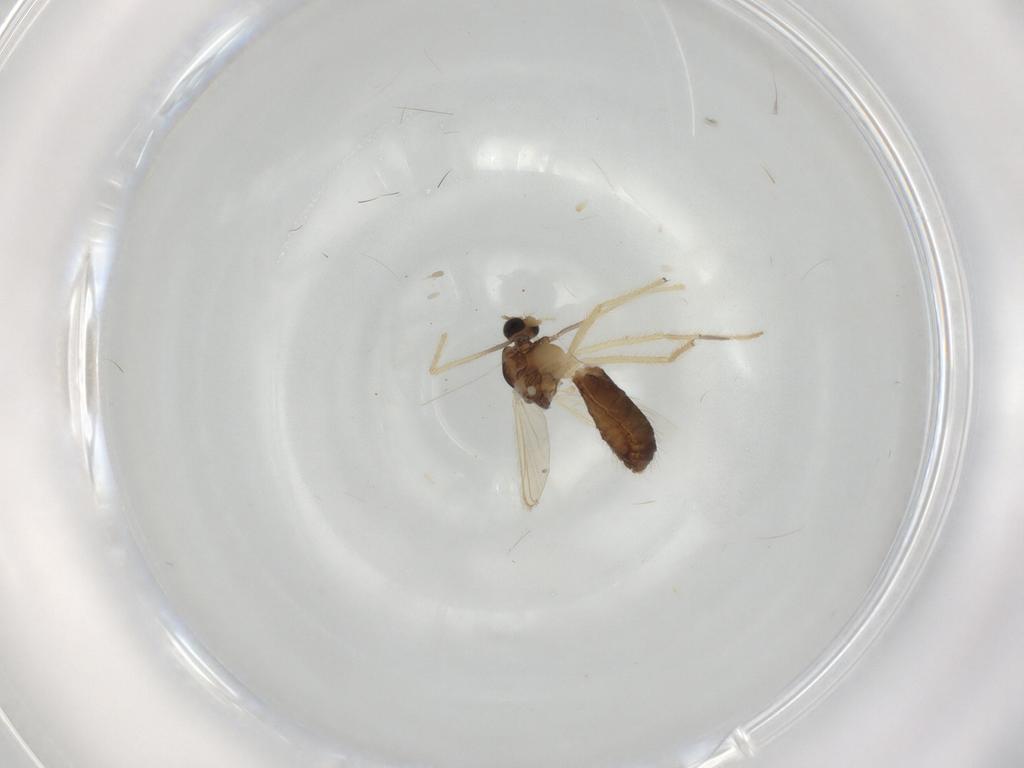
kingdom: Animalia
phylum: Arthropoda
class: Insecta
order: Diptera
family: Chironomidae
